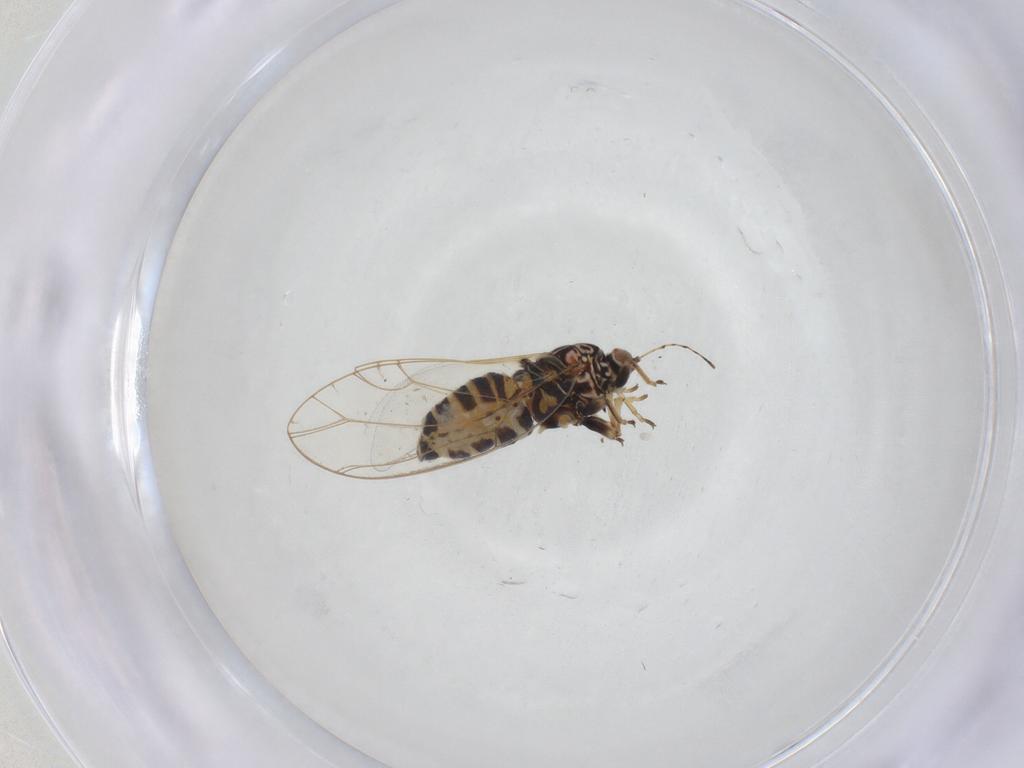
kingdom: Animalia
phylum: Arthropoda
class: Insecta
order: Hemiptera
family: Triozidae
